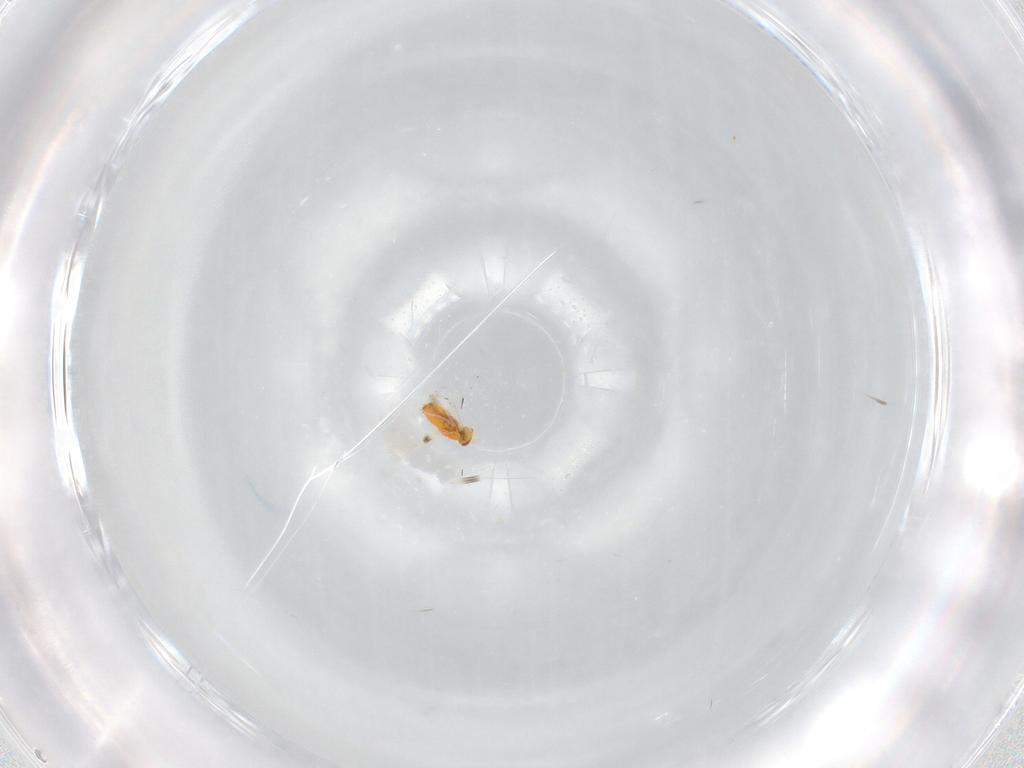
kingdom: Animalia
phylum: Arthropoda
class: Insecta
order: Hymenoptera
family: Trichogrammatidae
